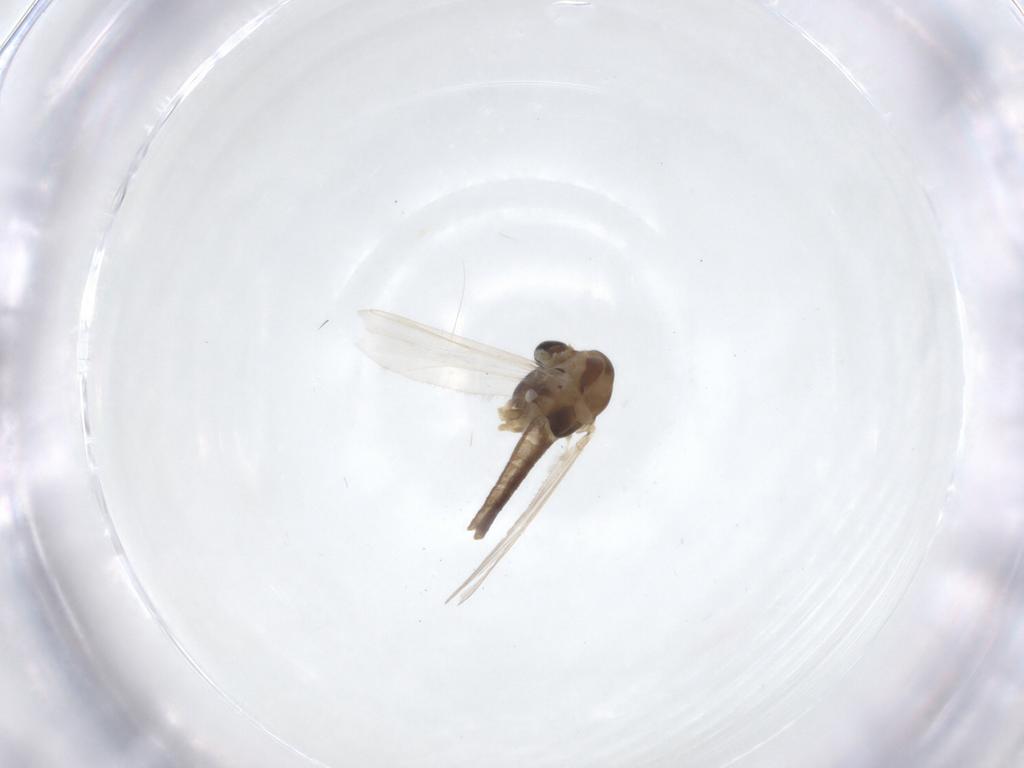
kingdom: Animalia
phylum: Arthropoda
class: Insecta
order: Diptera
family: Chironomidae
